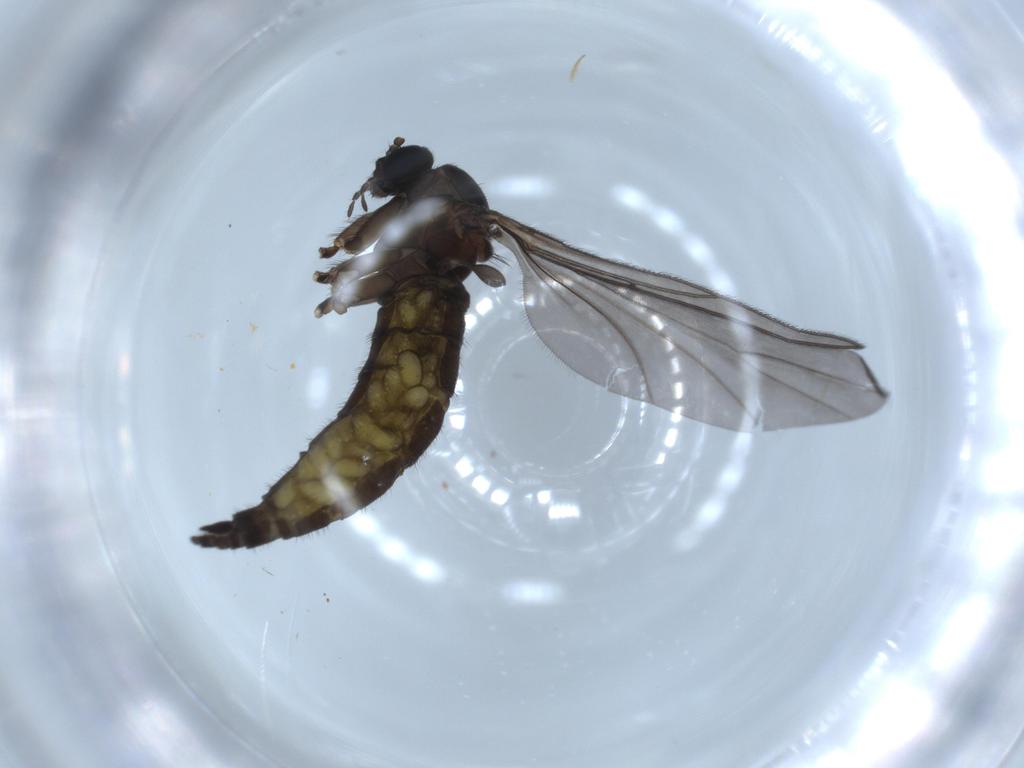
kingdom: Animalia
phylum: Arthropoda
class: Insecta
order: Diptera
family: Sciaridae
